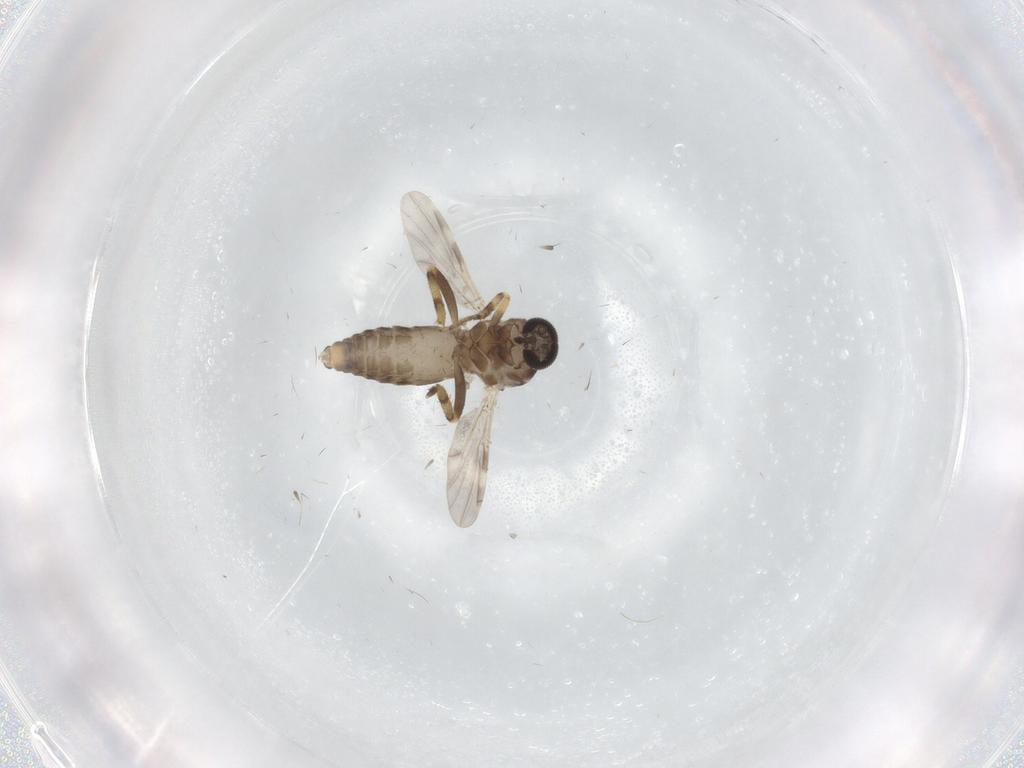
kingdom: Animalia
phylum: Arthropoda
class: Insecta
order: Diptera
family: Ceratopogonidae
